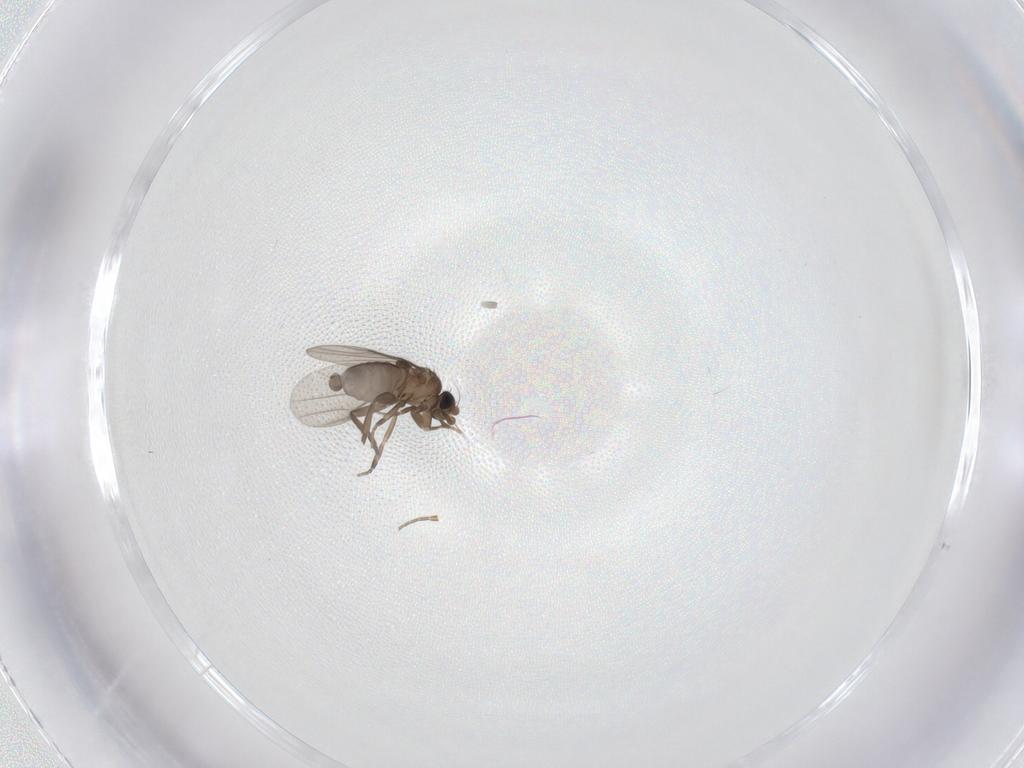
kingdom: Animalia
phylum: Arthropoda
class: Insecta
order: Diptera
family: Phoridae
